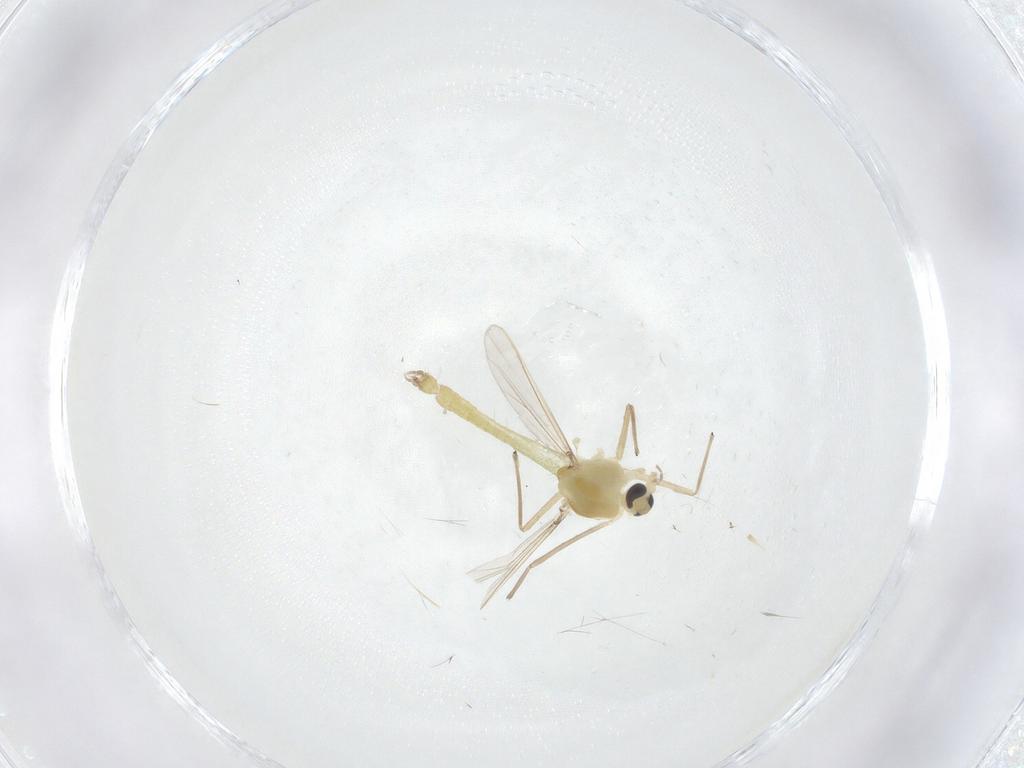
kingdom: Animalia
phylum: Arthropoda
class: Insecta
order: Diptera
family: Chironomidae
